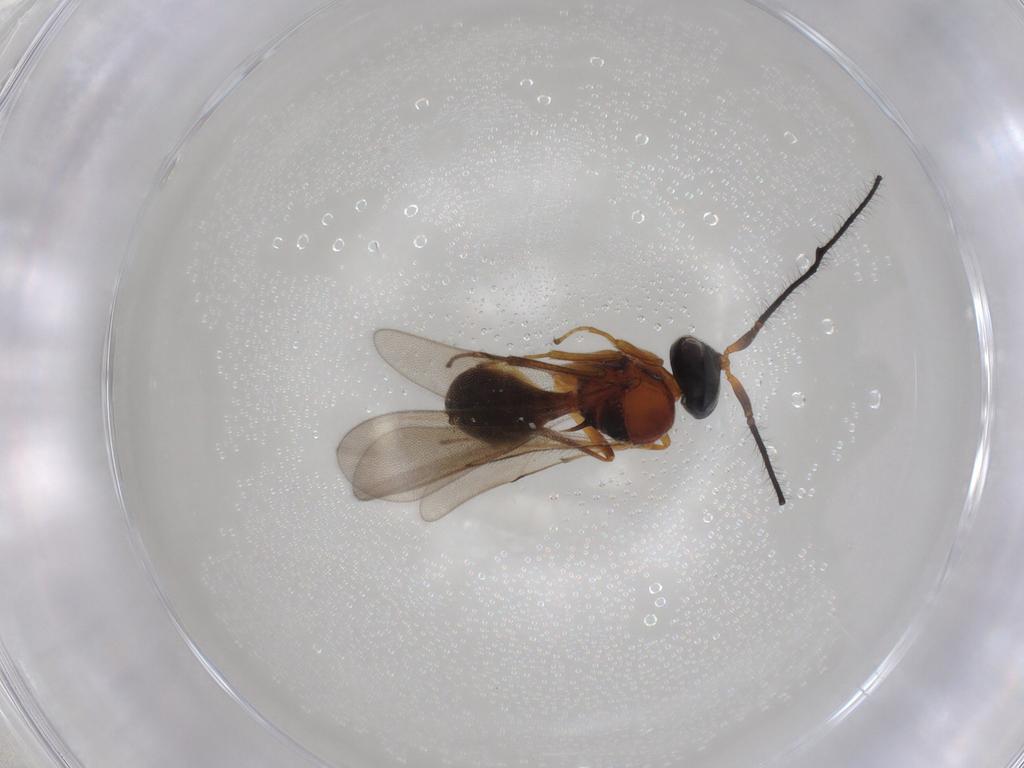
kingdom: Animalia
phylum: Arthropoda
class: Insecta
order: Hymenoptera
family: Scelionidae
